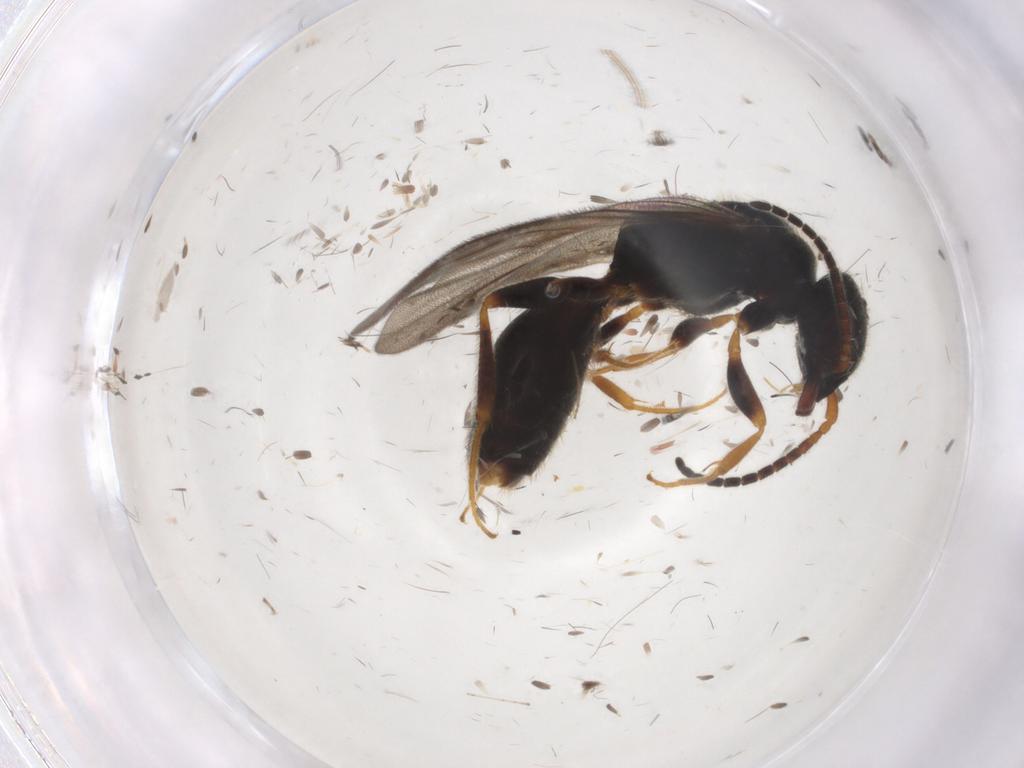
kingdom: Animalia
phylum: Arthropoda
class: Insecta
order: Hymenoptera
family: Bethylidae
